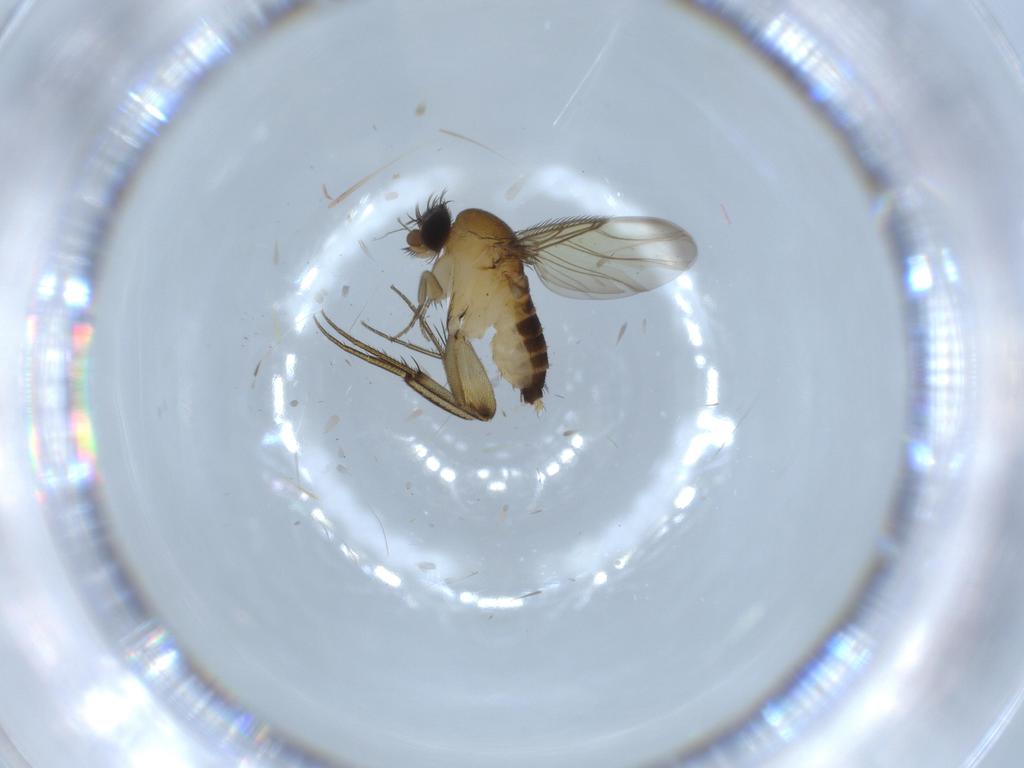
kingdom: Animalia
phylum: Arthropoda
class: Insecta
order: Diptera
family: Phoridae
